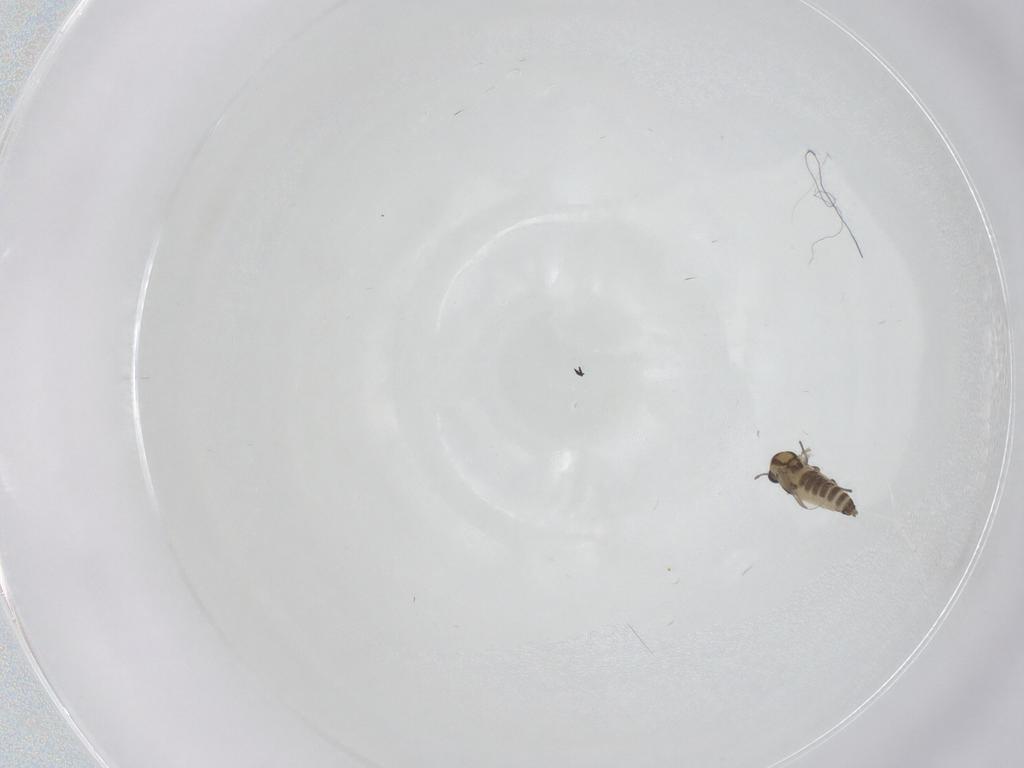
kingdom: Animalia
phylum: Arthropoda
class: Insecta
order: Diptera
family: Chironomidae
